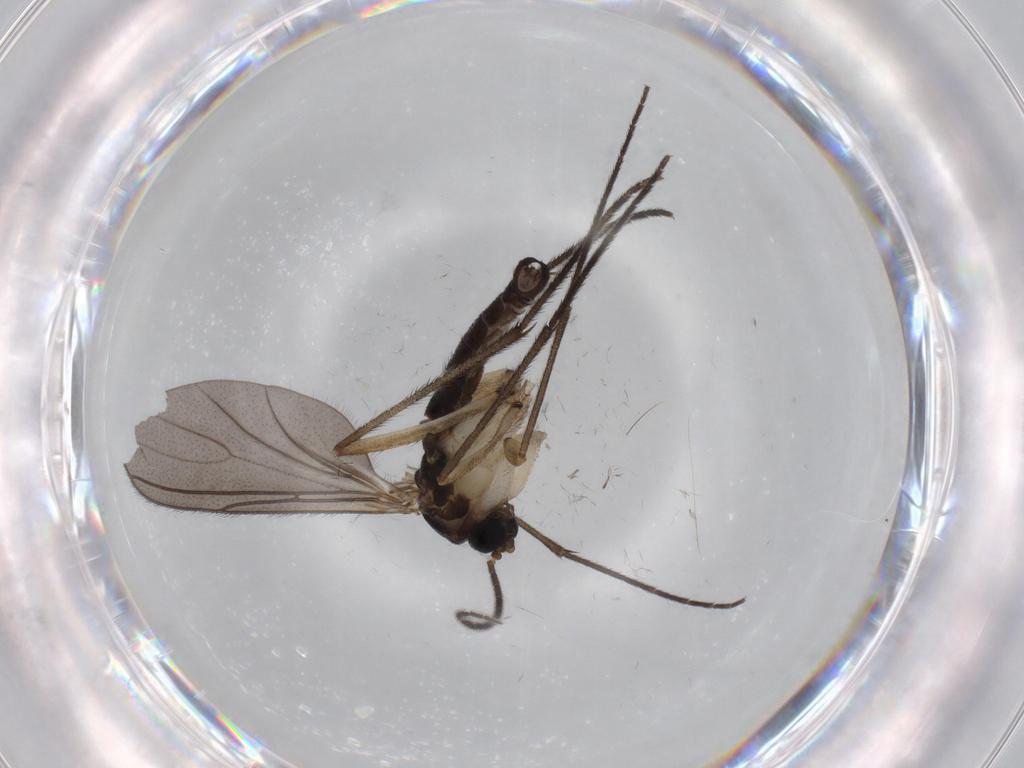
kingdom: Animalia
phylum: Arthropoda
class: Insecta
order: Diptera
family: Sciaridae
